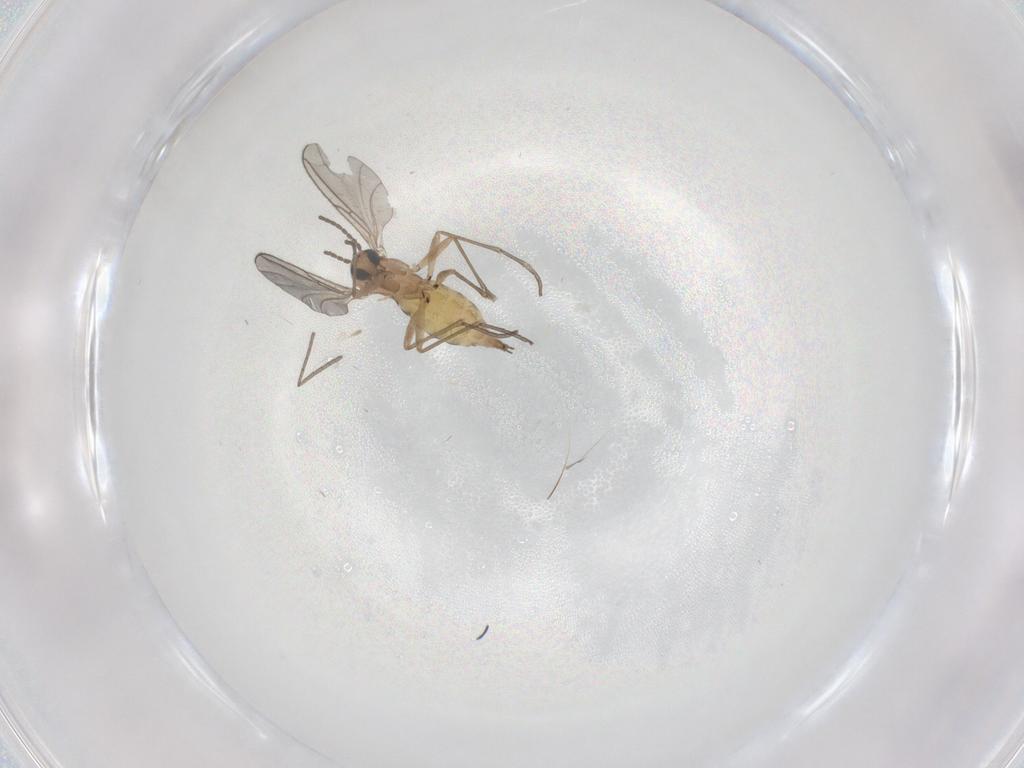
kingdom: Animalia
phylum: Arthropoda
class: Insecta
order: Diptera
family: Sciaridae
